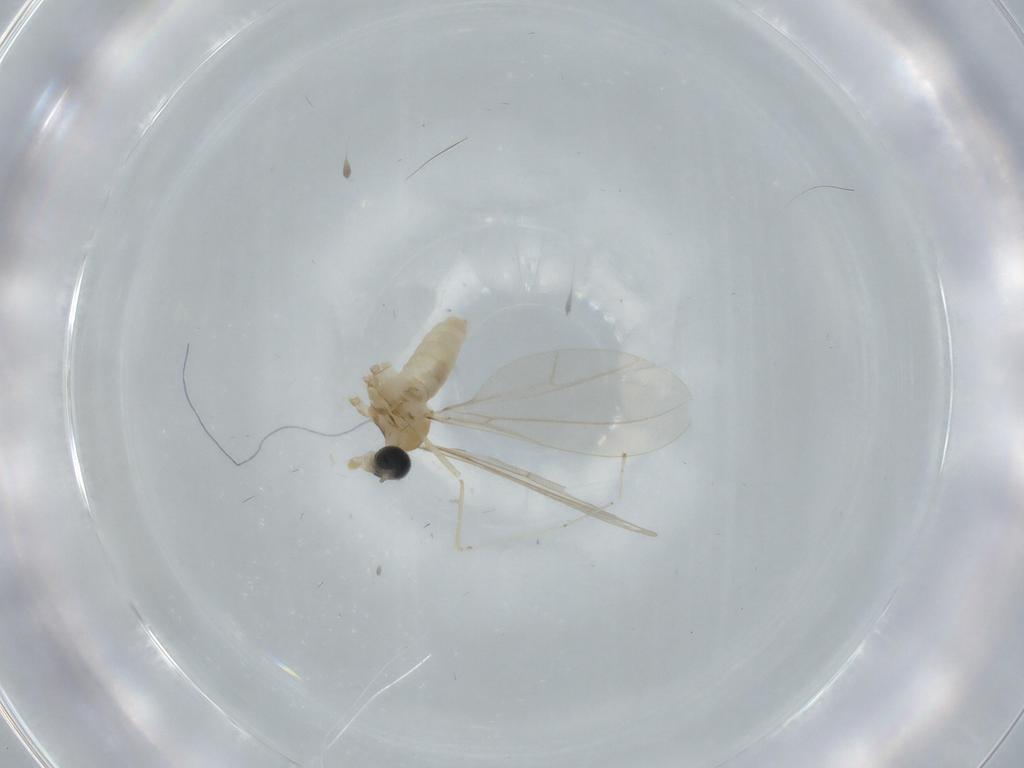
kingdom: Animalia
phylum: Arthropoda
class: Insecta
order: Diptera
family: Cecidomyiidae
